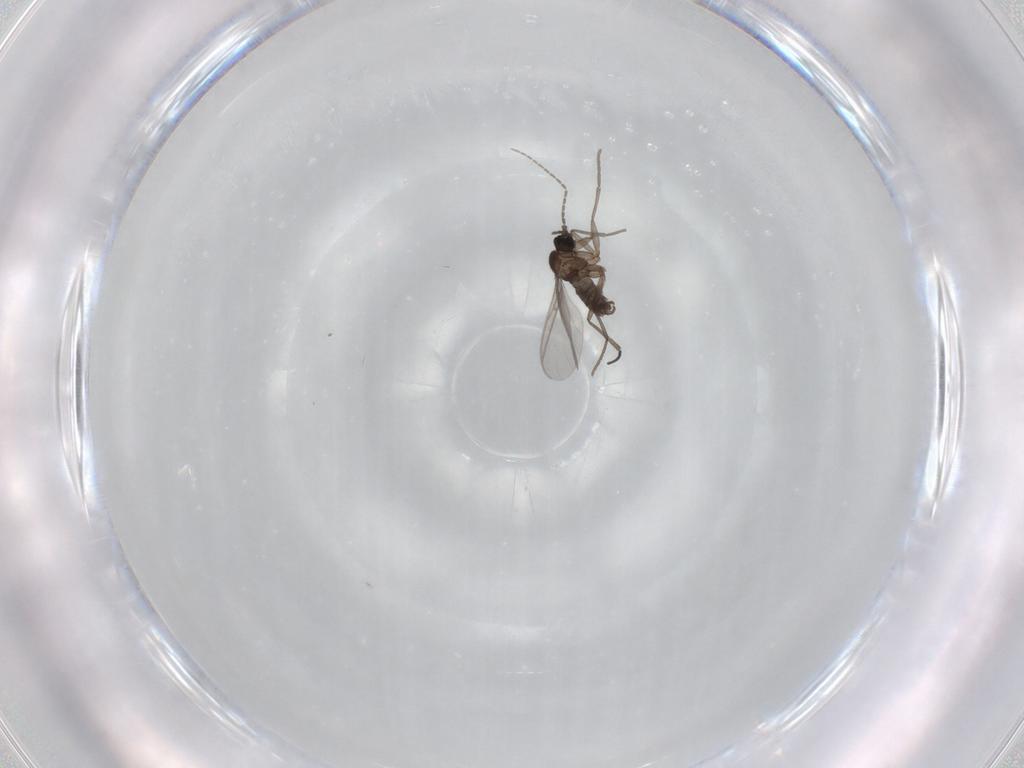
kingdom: Animalia
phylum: Arthropoda
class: Insecta
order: Diptera
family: Sciaridae
